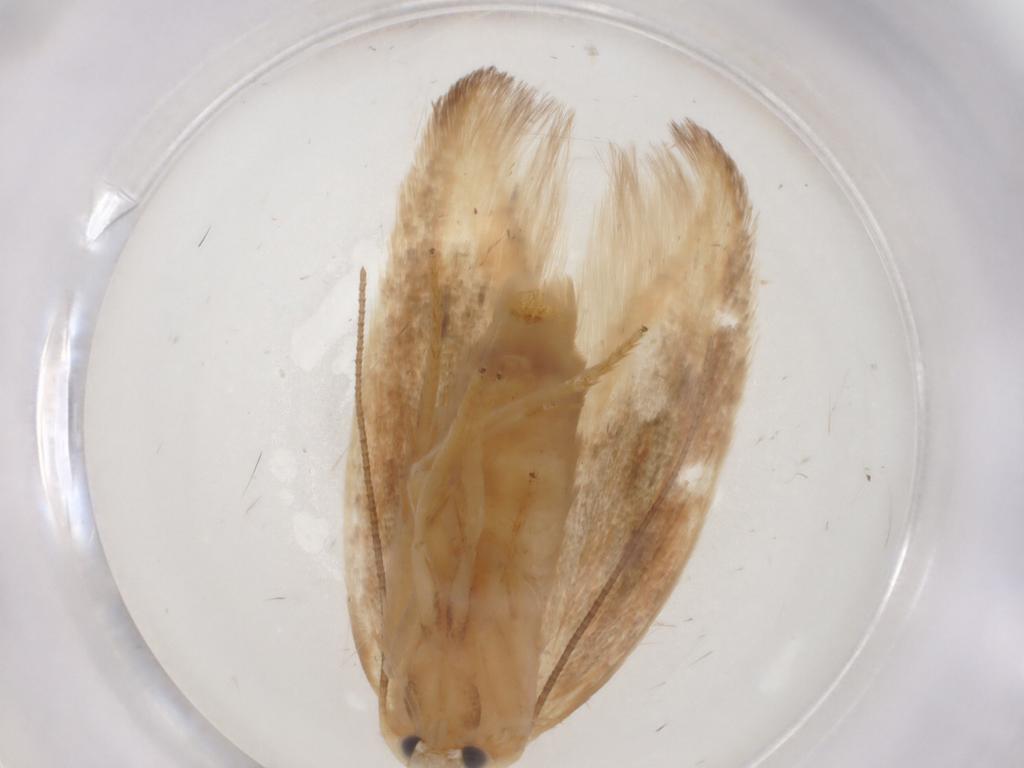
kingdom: Animalia
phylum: Arthropoda
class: Insecta
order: Lepidoptera
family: Geometridae
